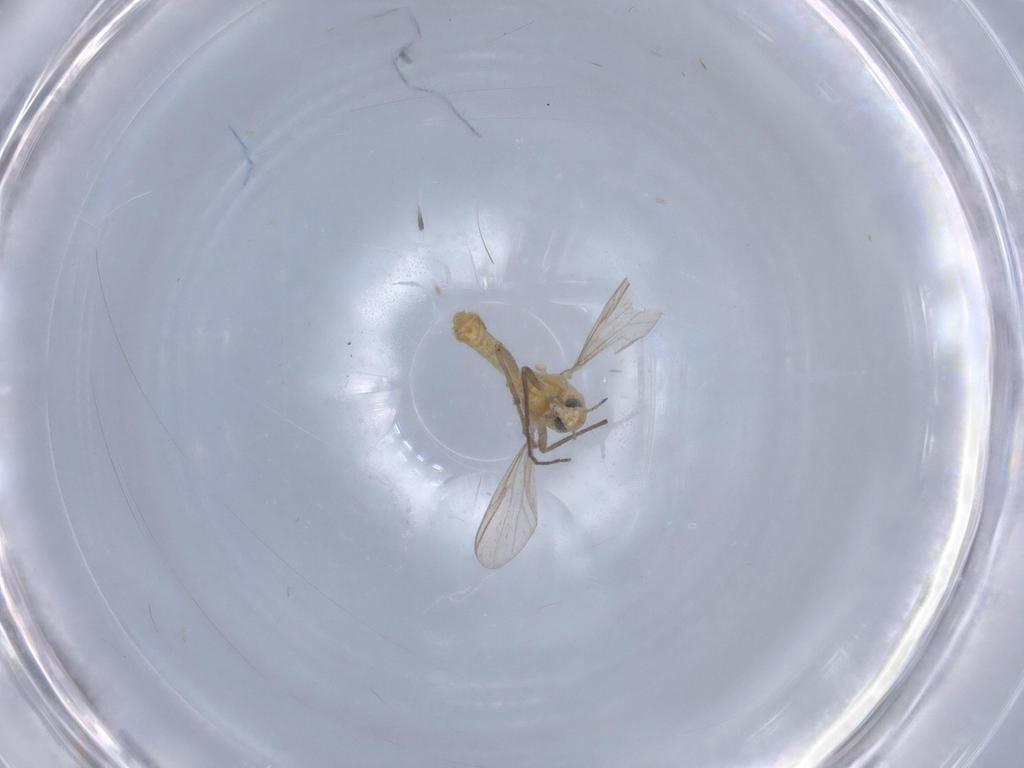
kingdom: Animalia
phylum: Arthropoda
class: Insecta
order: Diptera
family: Chironomidae
